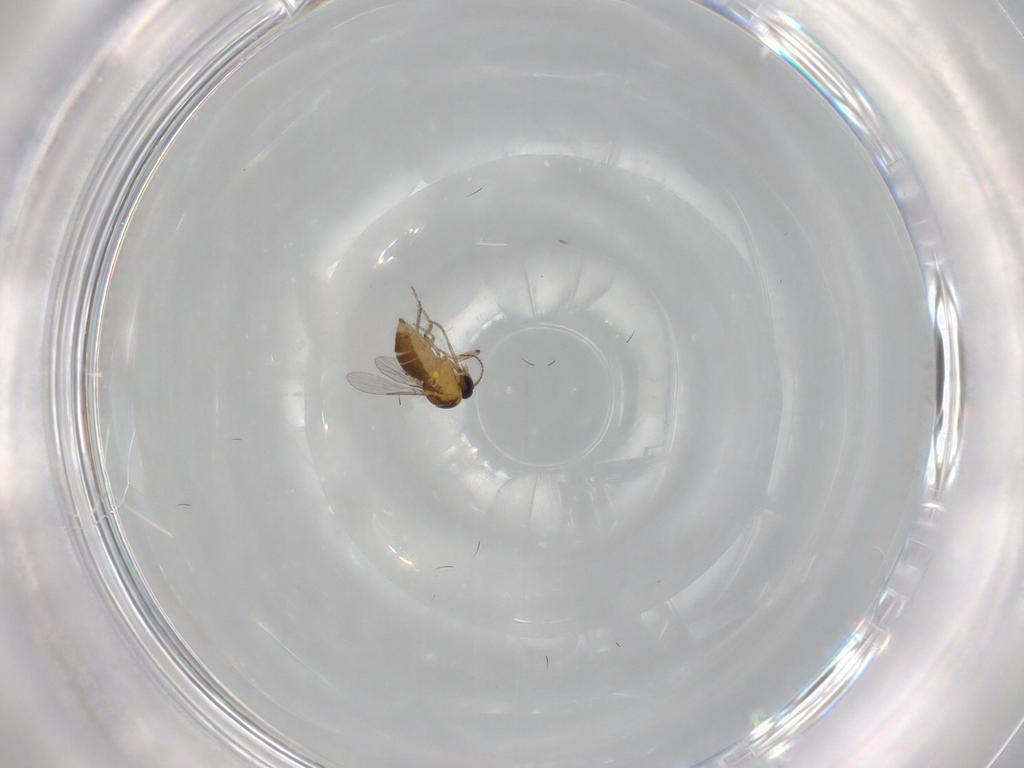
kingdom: Animalia
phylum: Arthropoda
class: Insecta
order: Diptera
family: Ceratopogonidae
